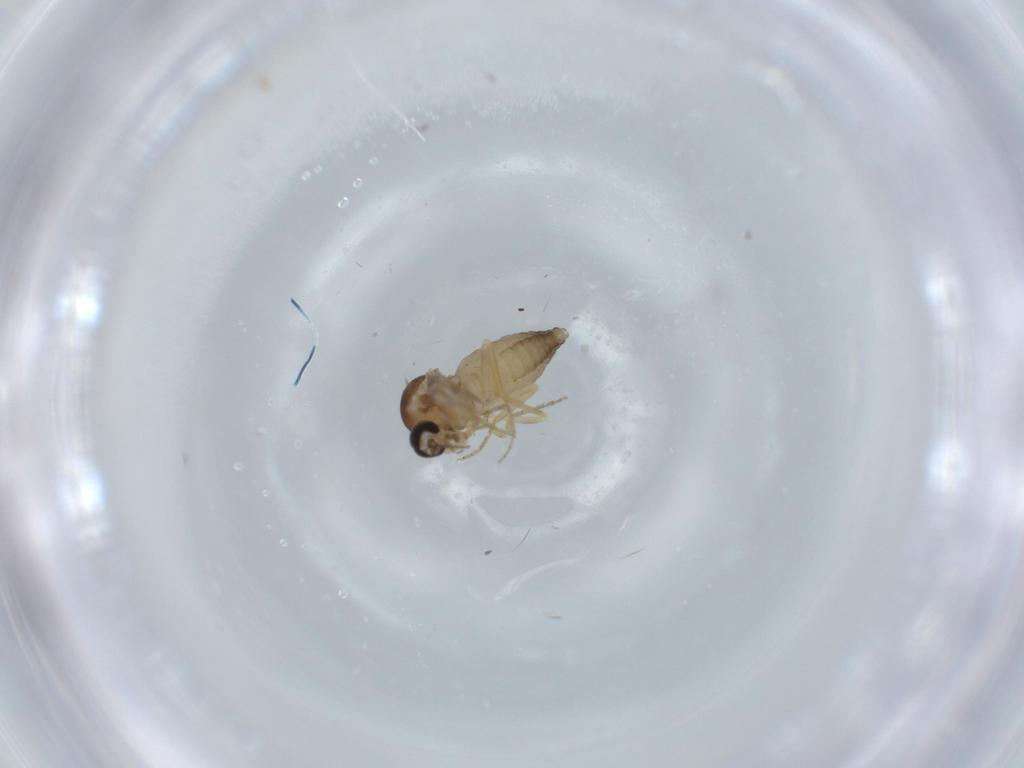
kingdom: Animalia
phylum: Arthropoda
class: Insecta
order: Diptera
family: Ceratopogonidae
